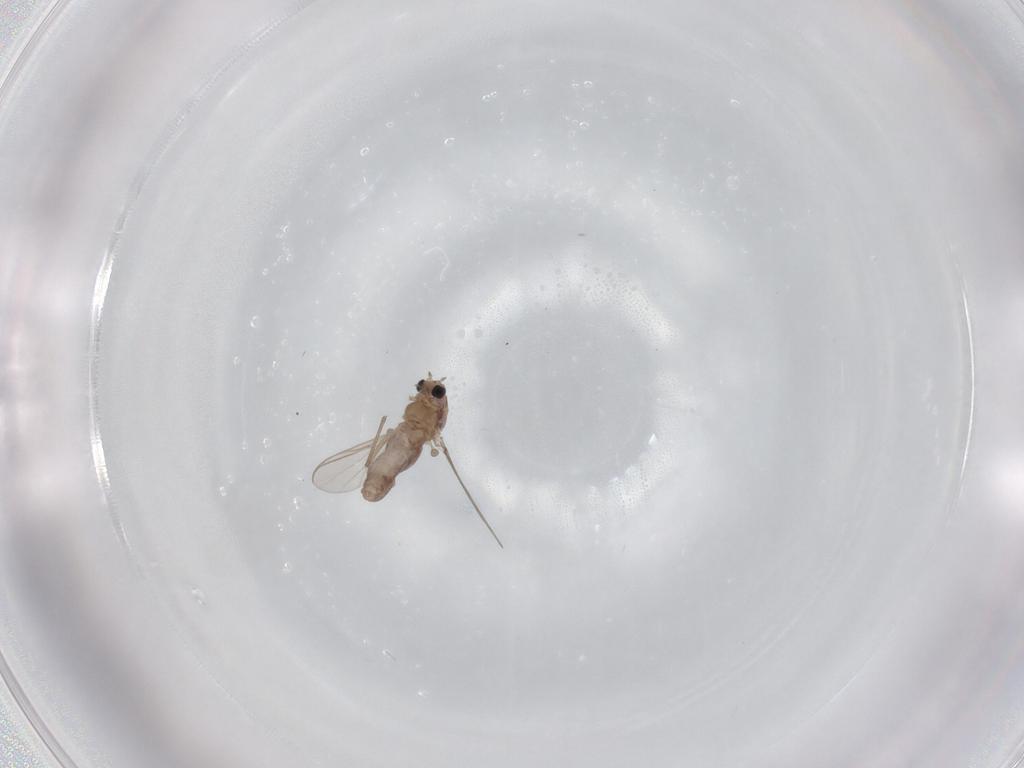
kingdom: Animalia
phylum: Arthropoda
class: Insecta
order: Diptera
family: Chironomidae
